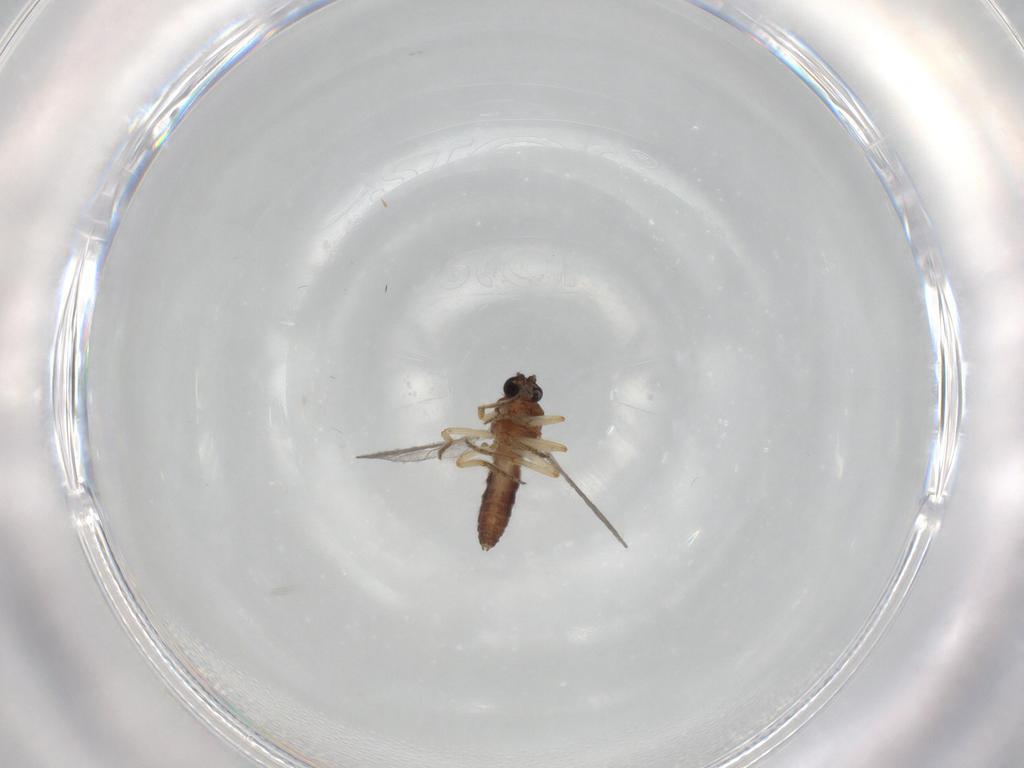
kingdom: Animalia
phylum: Arthropoda
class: Insecta
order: Diptera
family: Ceratopogonidae
